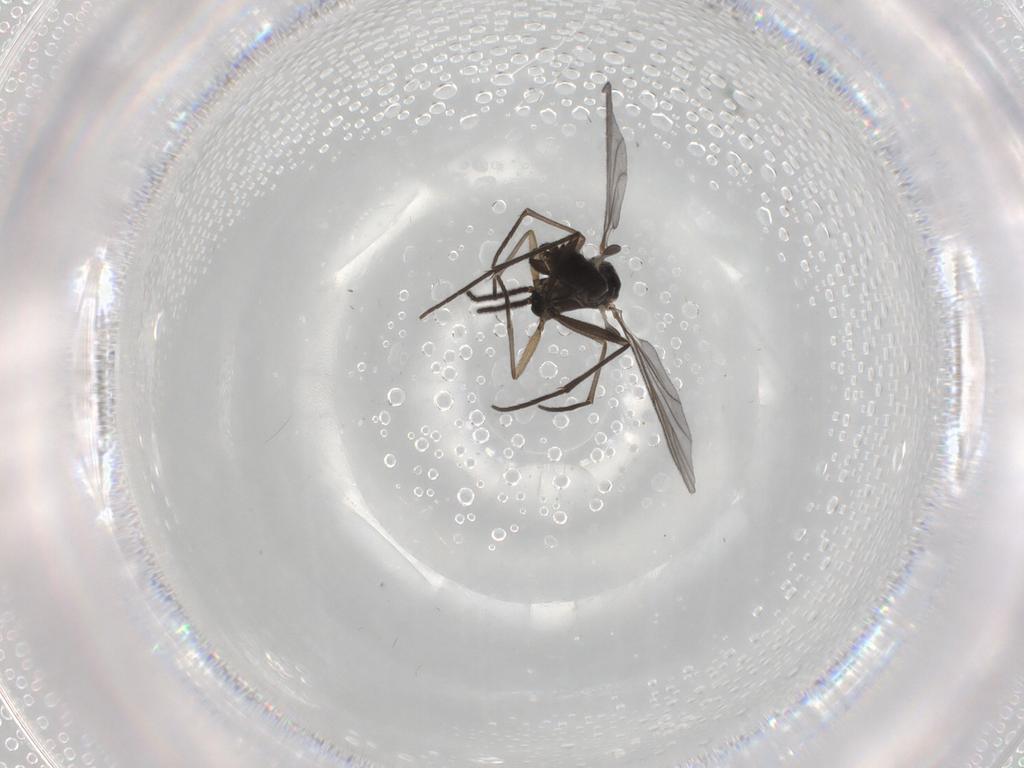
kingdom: Animalia
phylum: Arthropoda
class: Insecta
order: Diptera
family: Sciaridae
